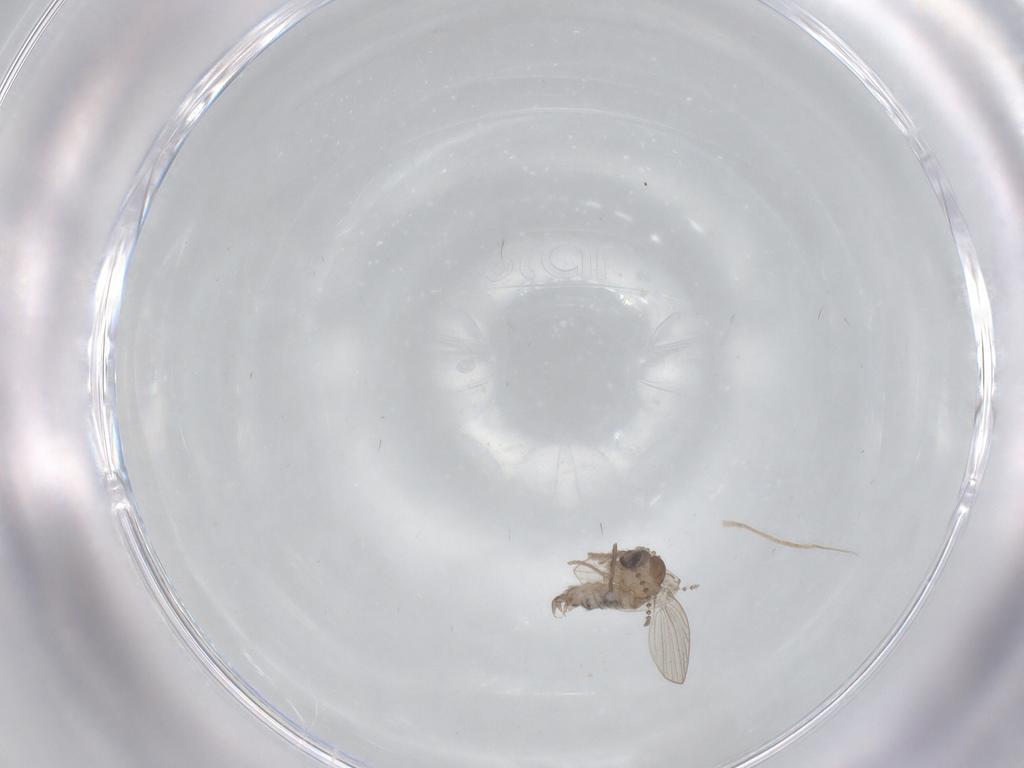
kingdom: Animalia
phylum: Arthropoda
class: Insecta
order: Diptera
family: Psychodidae
